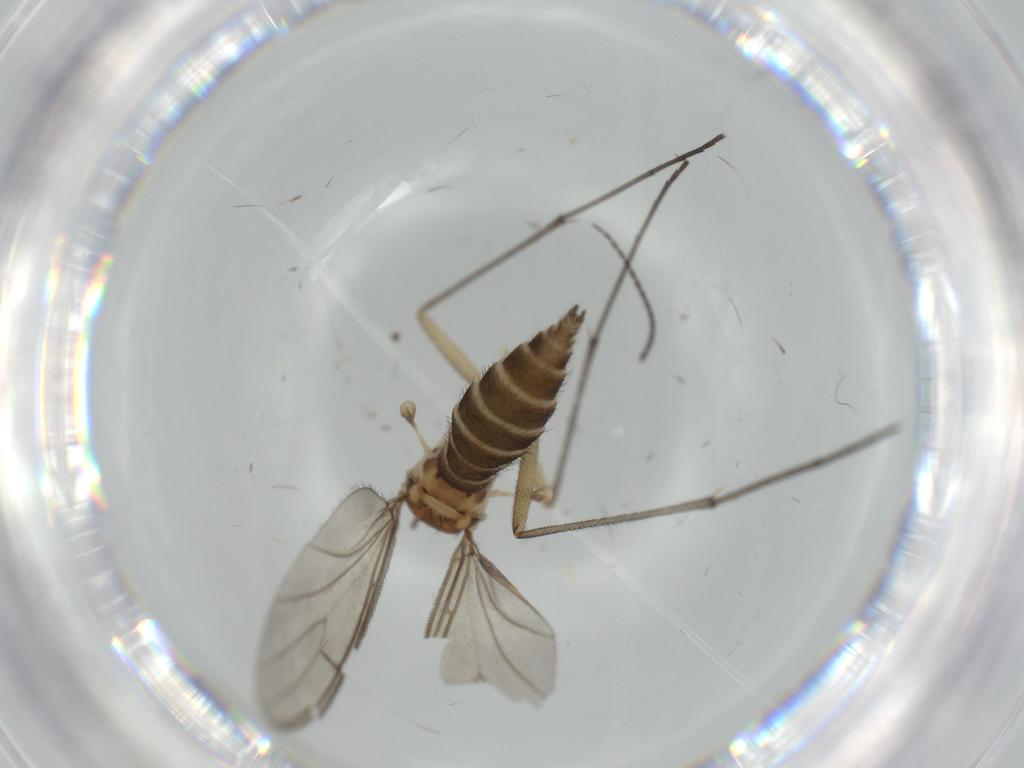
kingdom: Animalia
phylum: Arthropoda
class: Insecta
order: Diptera
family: Sciaridae
